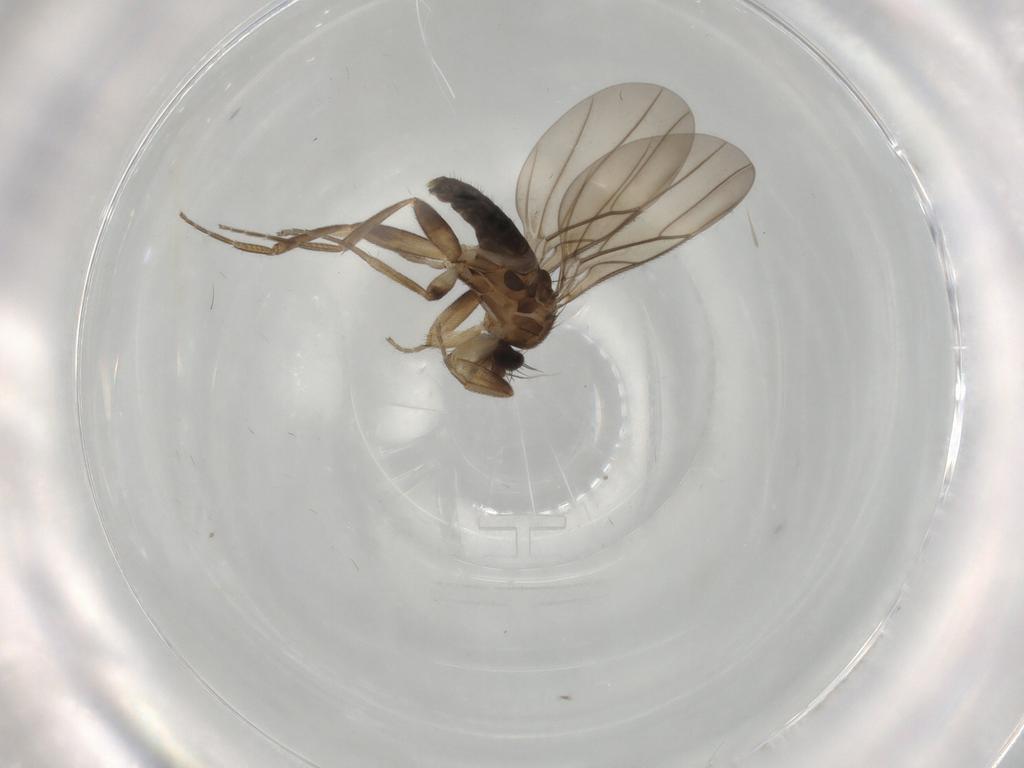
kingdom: Animalia
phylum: Arthropoda
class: Insecta
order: Diptera
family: Phoridae
